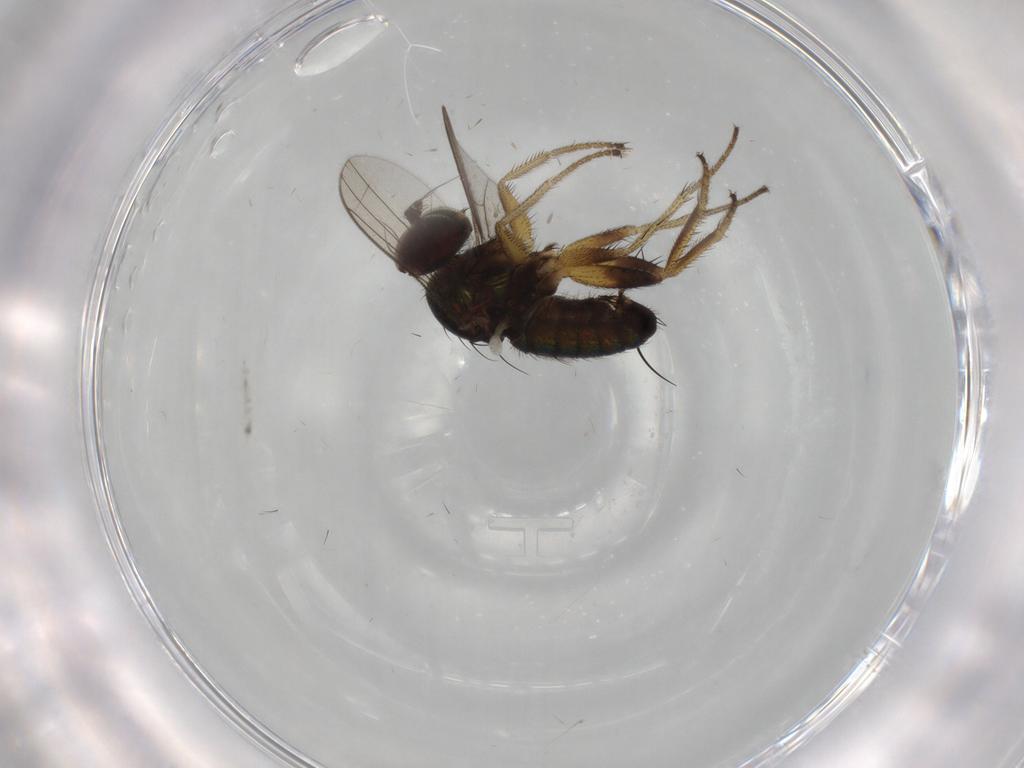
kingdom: Animalia
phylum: Arthropoda
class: Insecta
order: Diptera
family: Dolichopodidae
